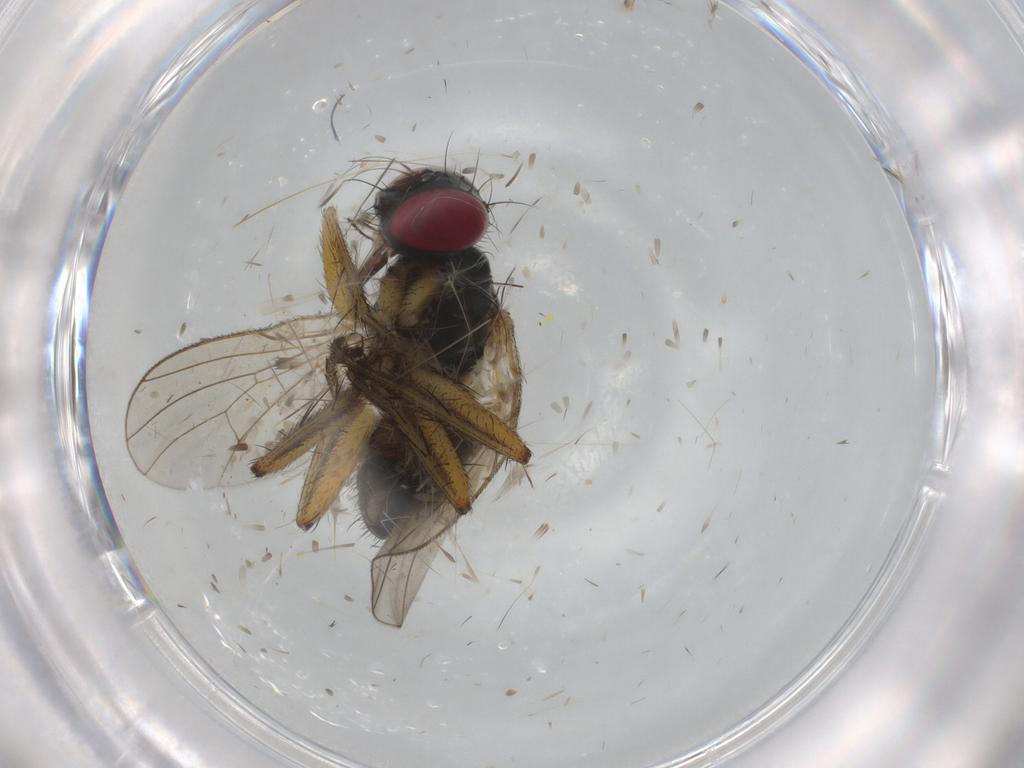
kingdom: Animalia
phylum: Arthropoda
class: Insecta
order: Diptera
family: Muscidae
